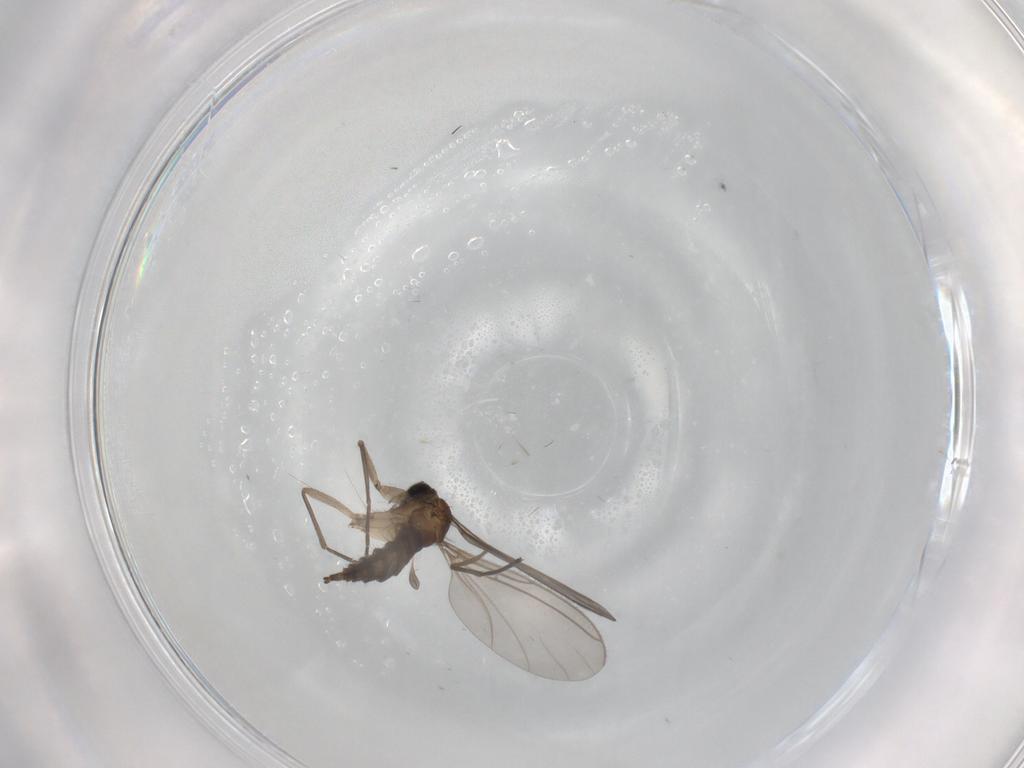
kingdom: Animalia
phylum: Arthropoda
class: Insecta
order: Diptera
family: Sciaridae
